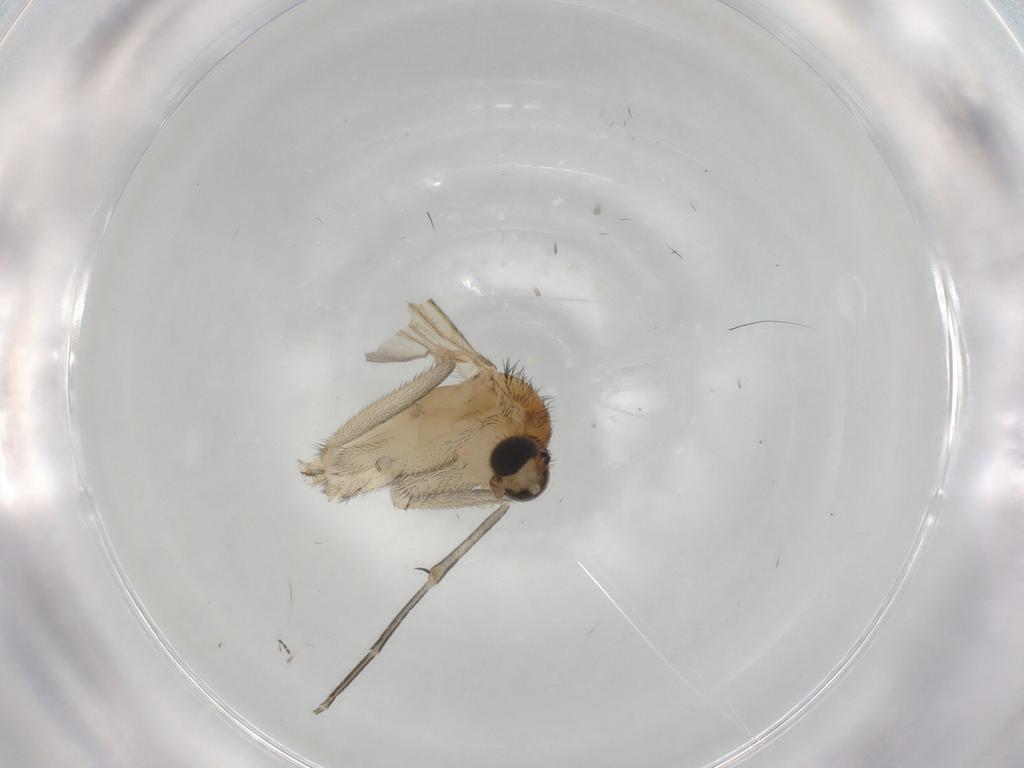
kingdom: Animalia
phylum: Arthropoda
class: Insecta
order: Diptera
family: Keroplatidae
